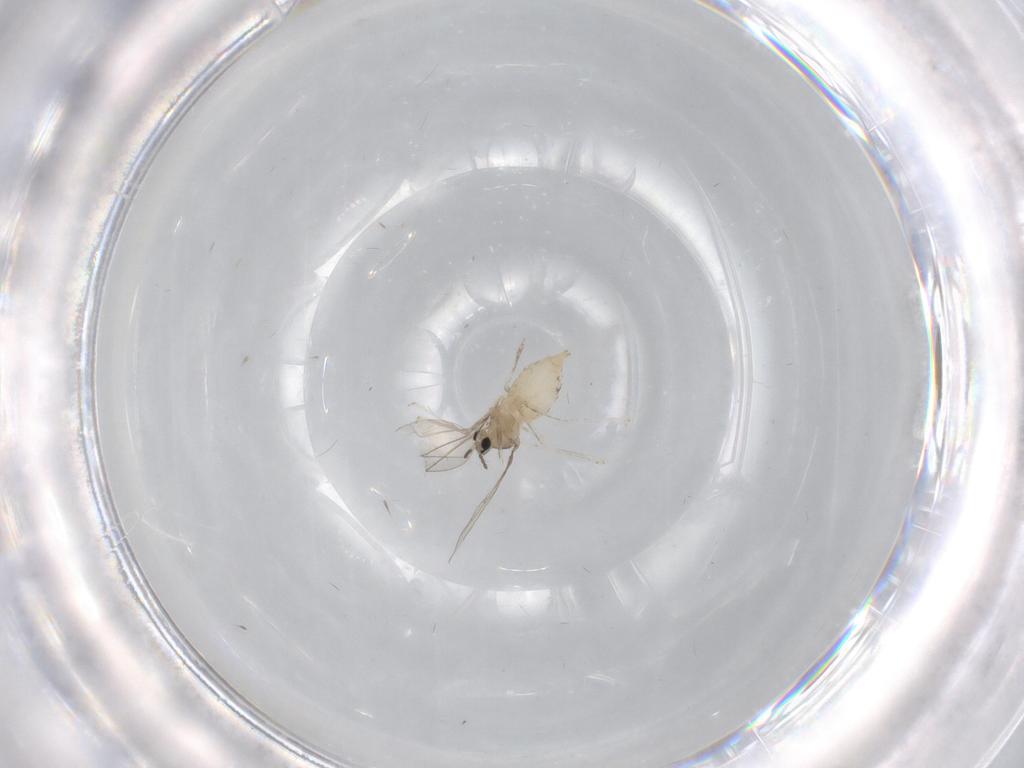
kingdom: Animalia
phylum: Arthropoda
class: Insecta
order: Diptera
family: Cecidomyiidae
